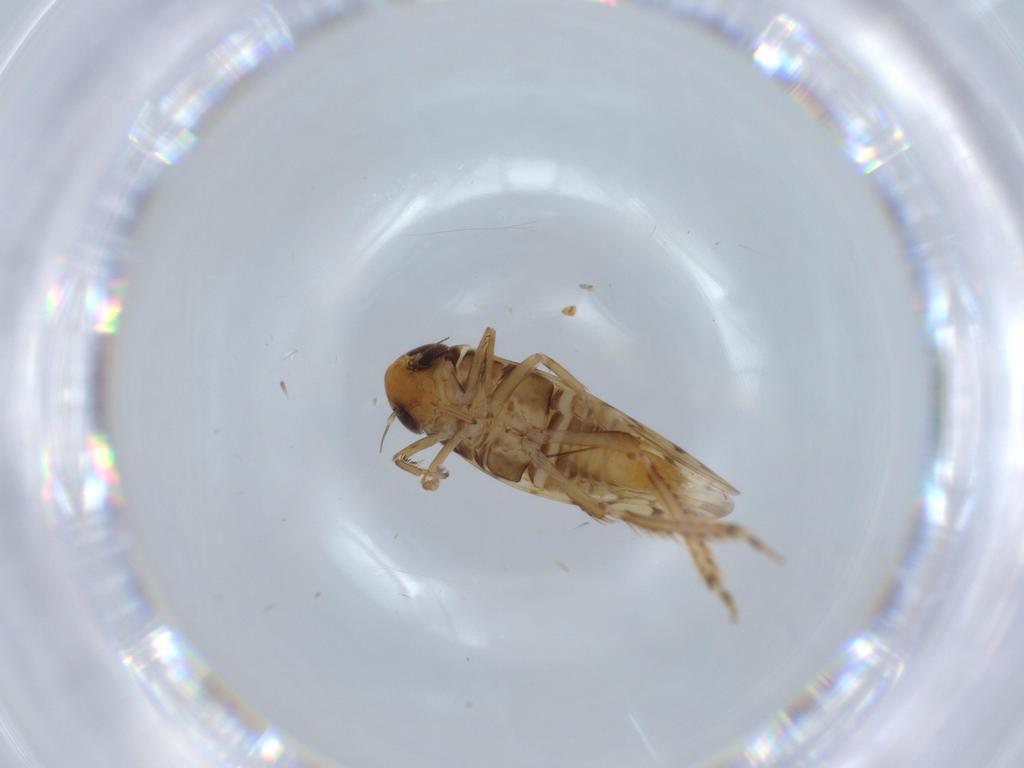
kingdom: Animalia
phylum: Arthropoda
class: Insecta
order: Hemiptera
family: Cicadellidae
